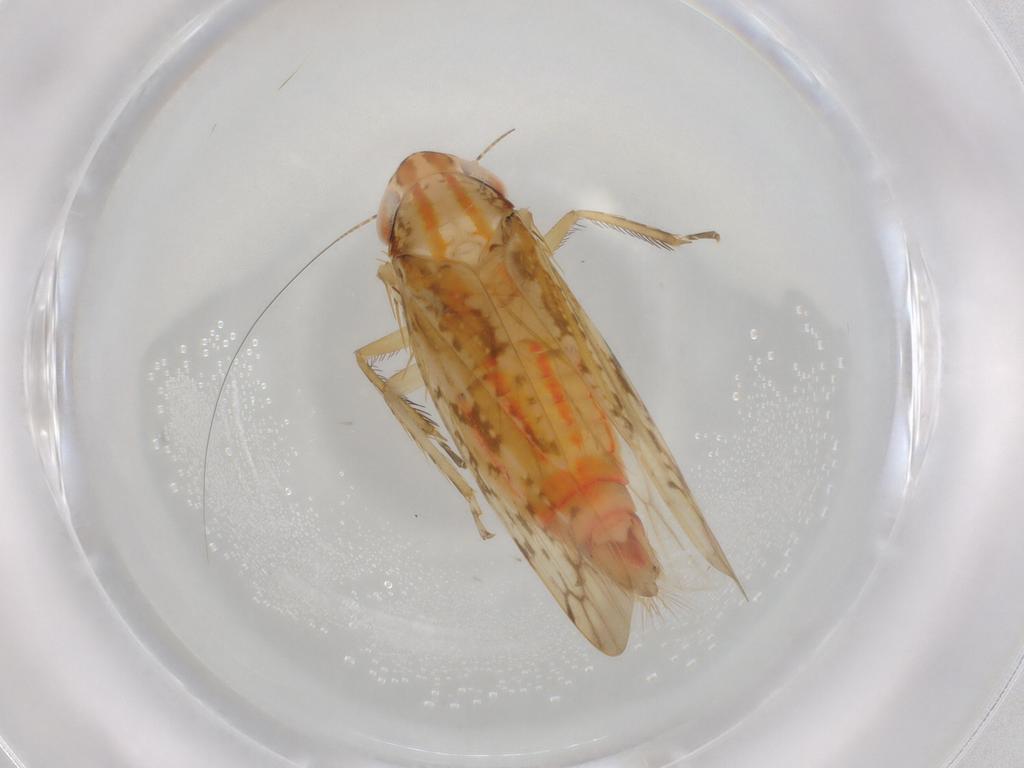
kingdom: Animalia
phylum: Arthropoda
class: Insecta
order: Hemiptera
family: Cicadellidae
